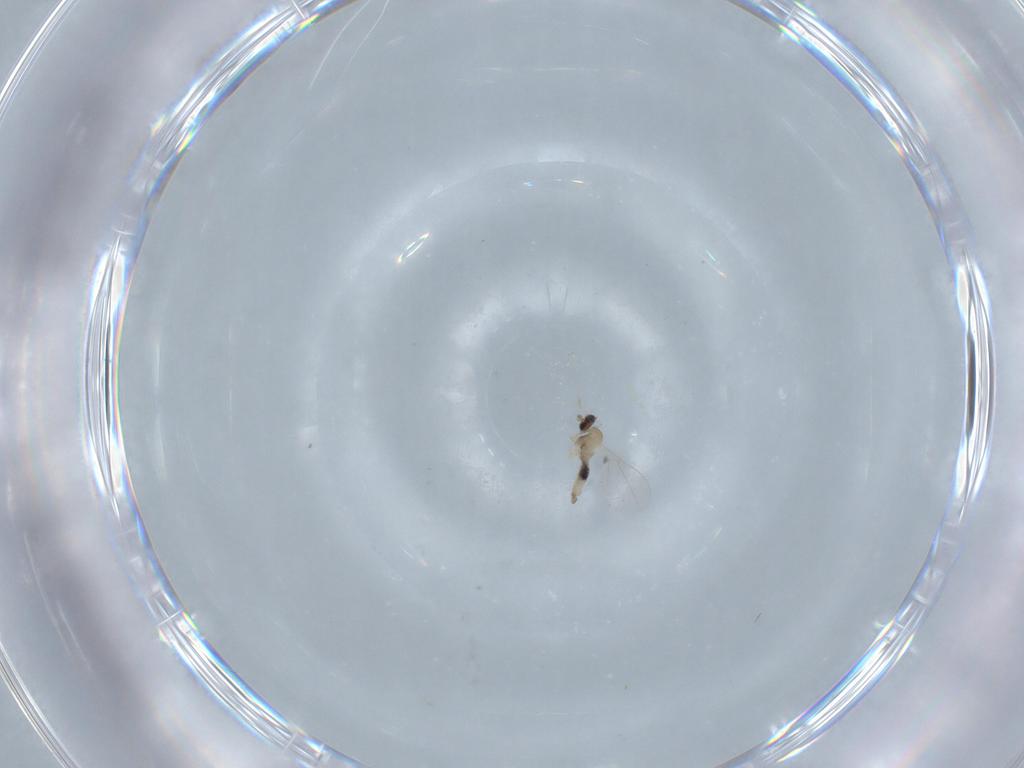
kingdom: Animalia
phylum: Arthropoda
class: Insecta
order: Diptera
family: Cecidomyiidae
